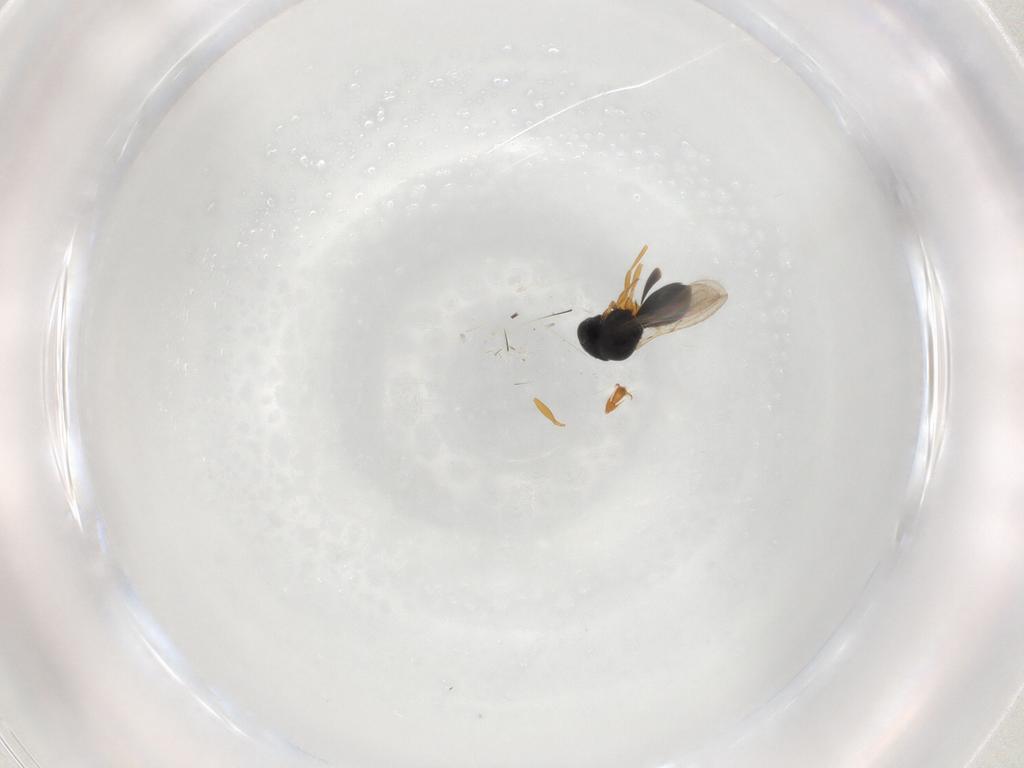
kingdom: Animalia
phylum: Arthropoda
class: Insecta
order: Hymenoptera
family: Scelionidae
